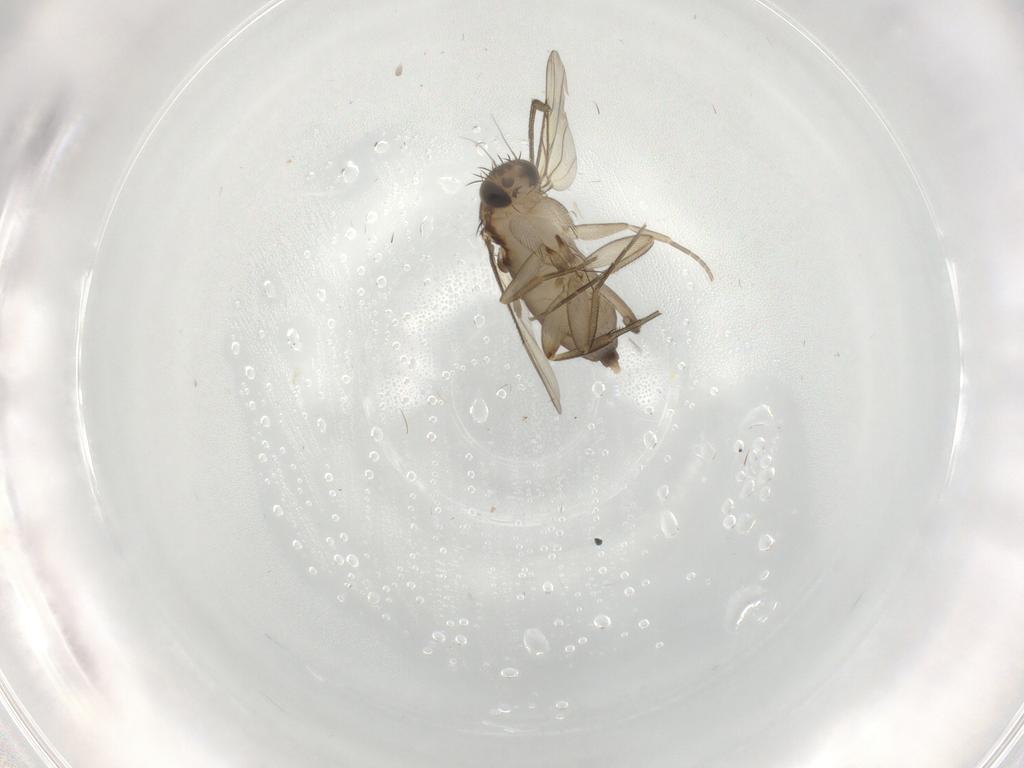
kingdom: Animalia
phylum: Arthropoda
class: Insecta
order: Diptera
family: Phoridae
